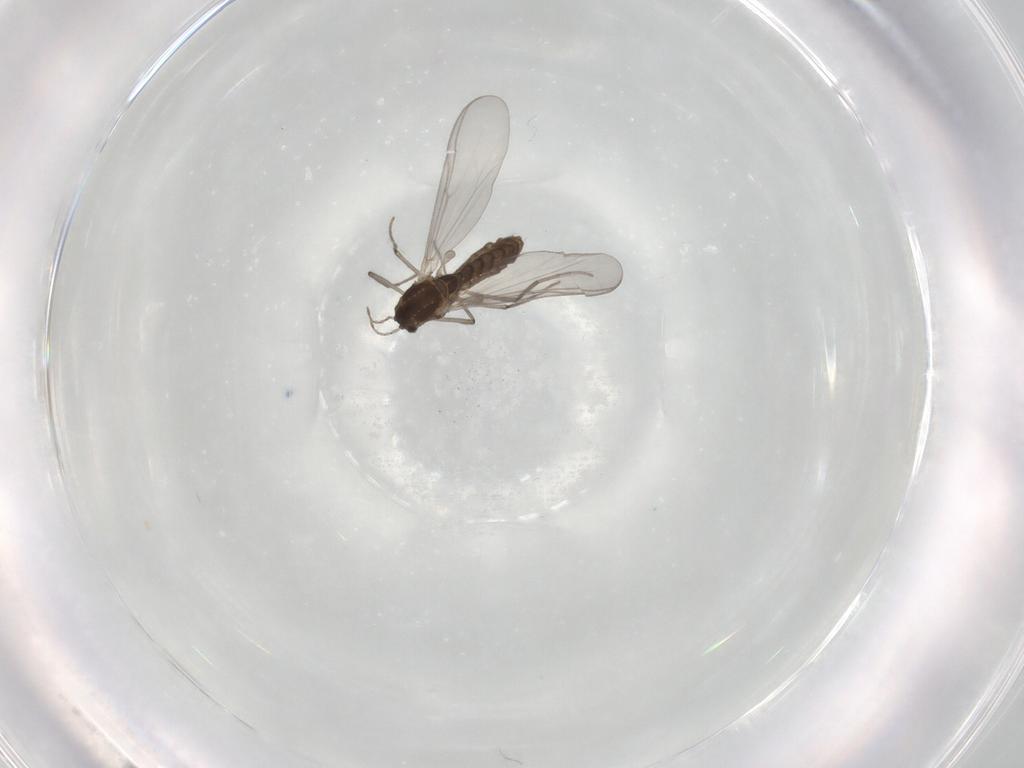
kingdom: Animalia
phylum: Arthropoda
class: Insecta
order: Diptera
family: Chironomidae
